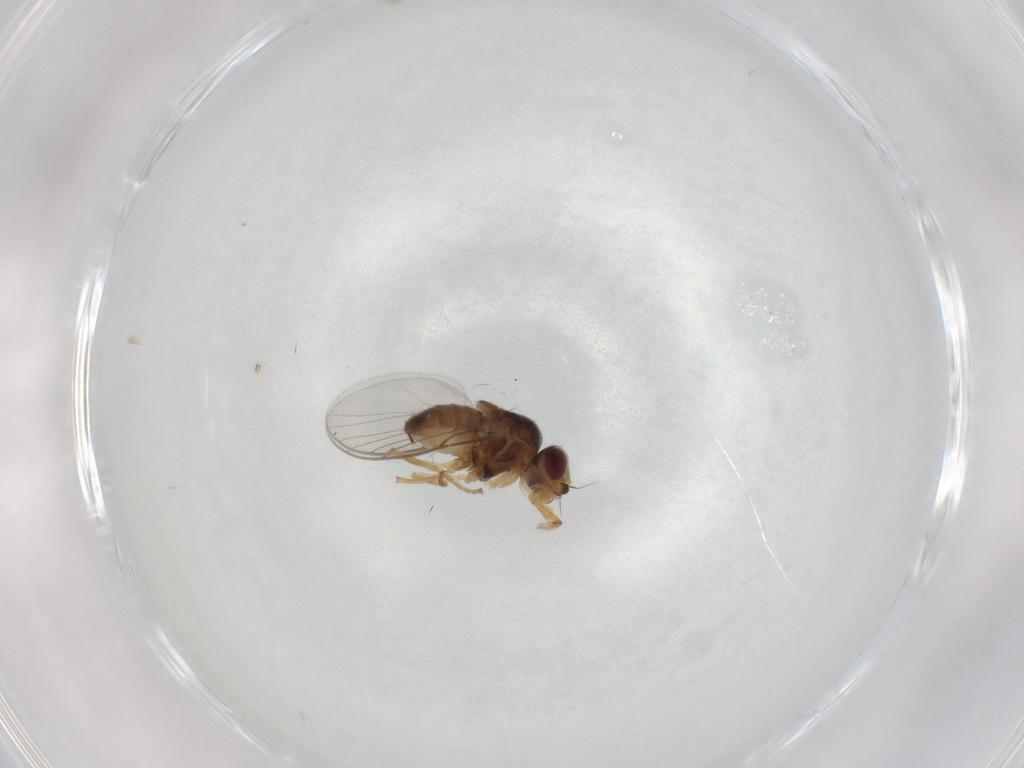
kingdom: Animalia
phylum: Arthropoda
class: Insecta
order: Diptera
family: Chloropidae
